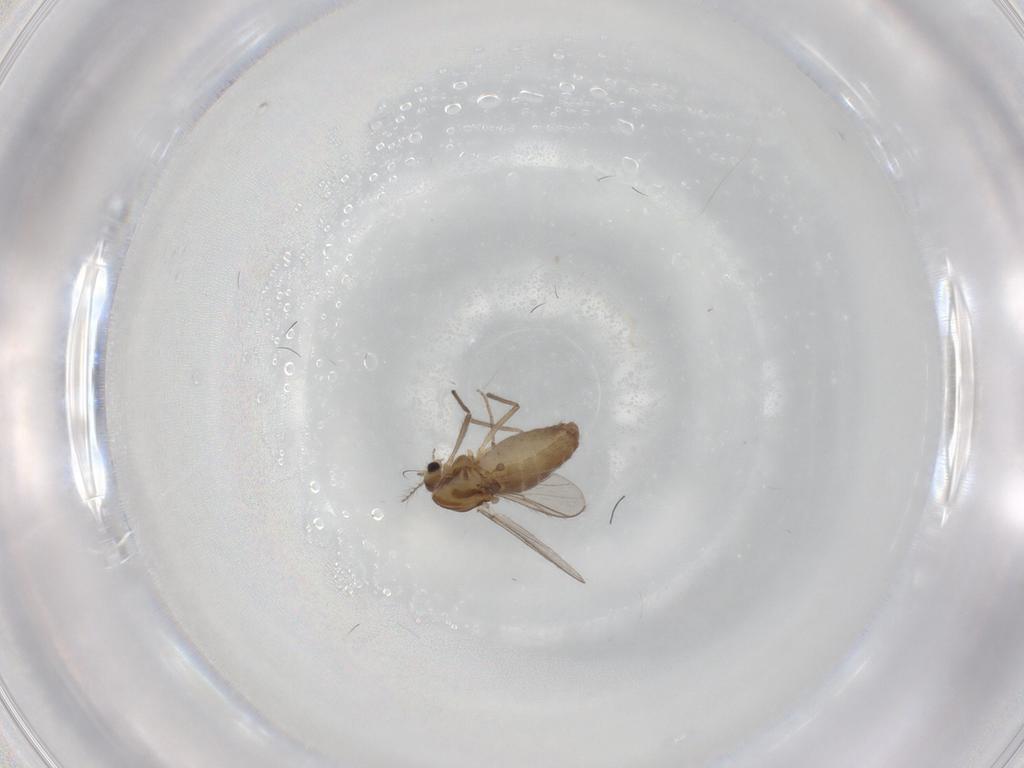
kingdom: Animalia
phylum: Arthropoda
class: Insecta
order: Diptera
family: Chironomidae
